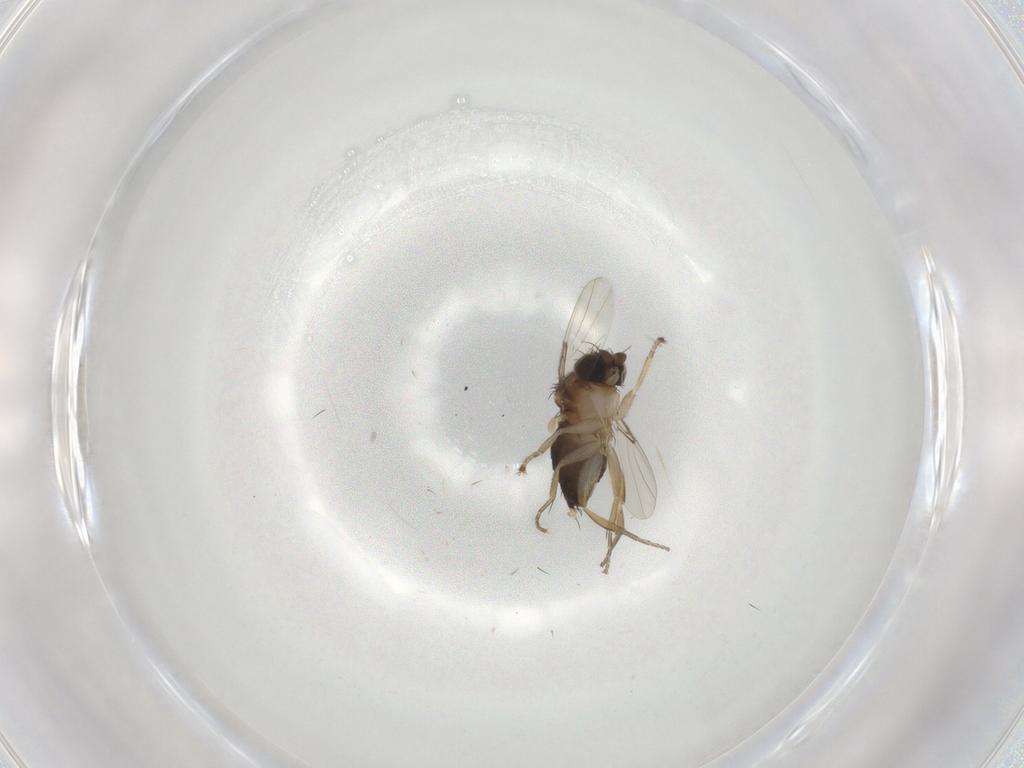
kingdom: Animalia
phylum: Arthropoda
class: Insecta
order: Diptera
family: Phoridae
